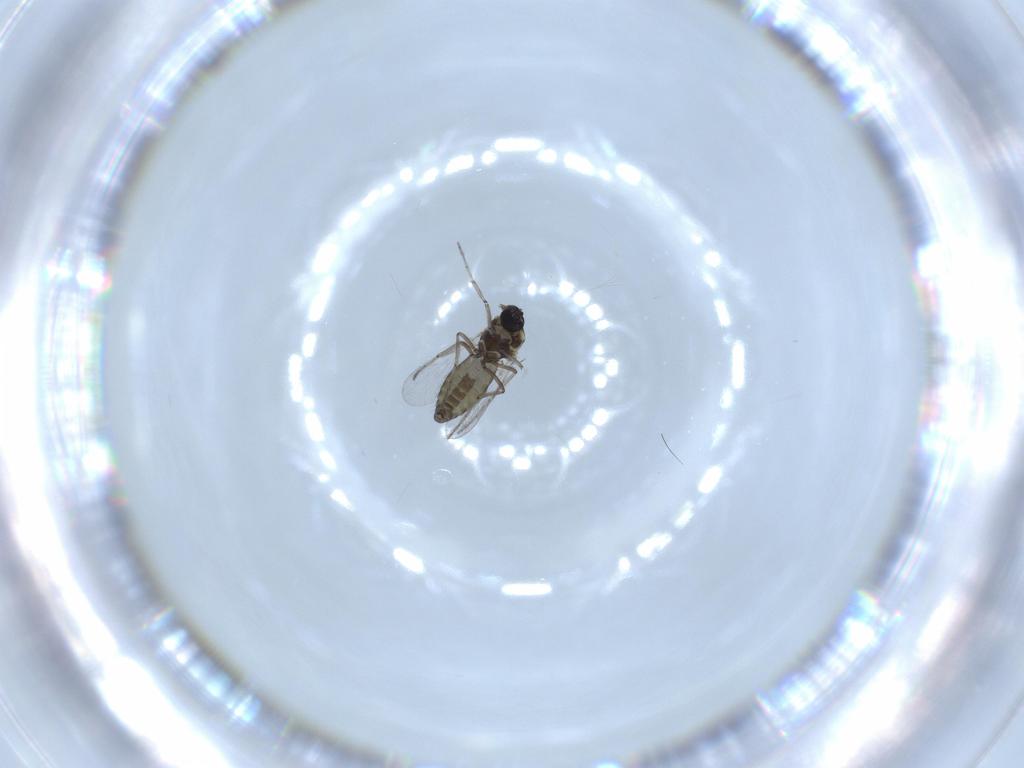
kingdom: Animalia
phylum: Arthropoda
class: Insecta
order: Diptera
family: Ceratopogonidae
